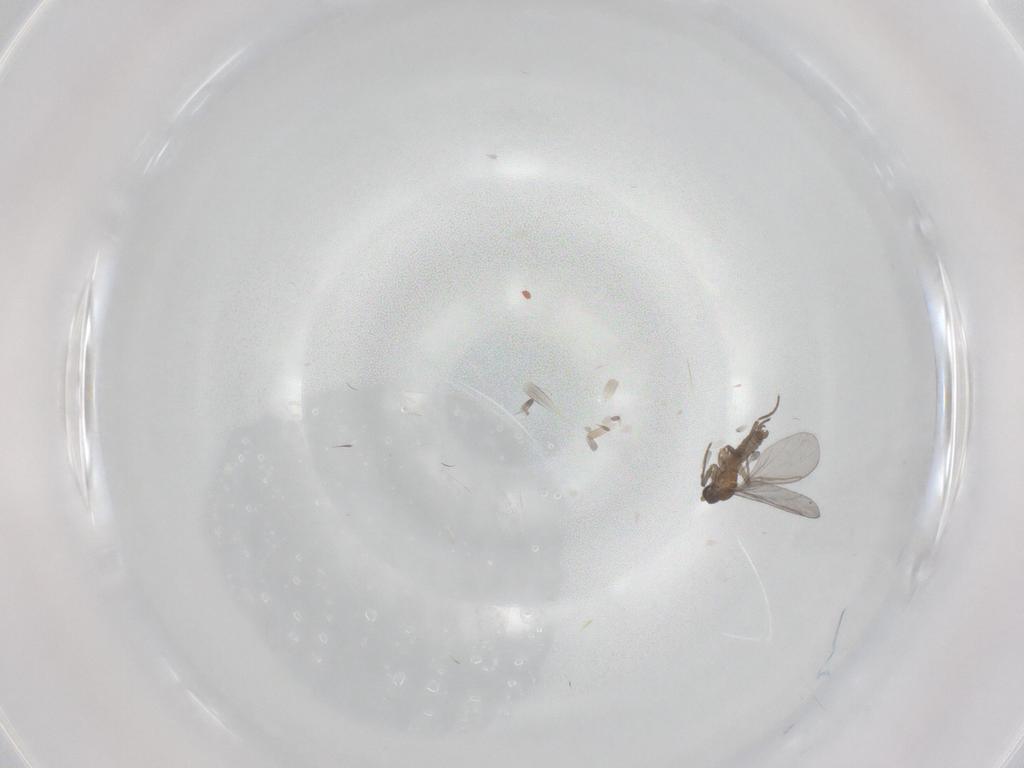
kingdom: Animalia
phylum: Arthropoda
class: Insecta
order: Diptera
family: Sciaridae
